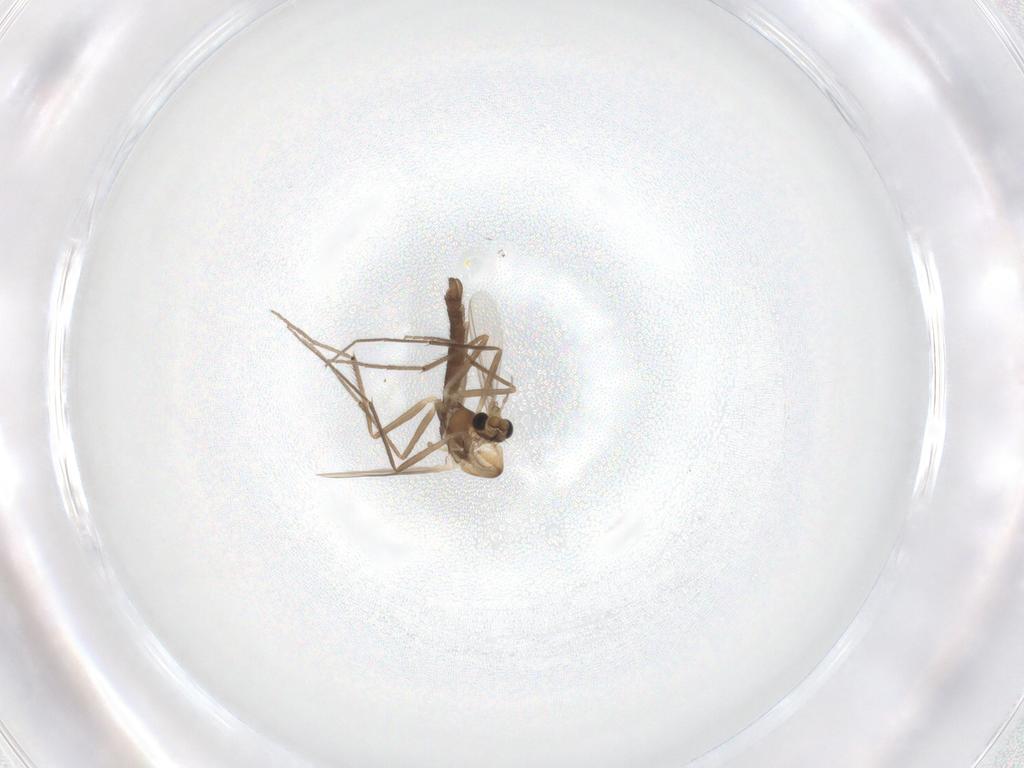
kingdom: Animalia
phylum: Arthropoda
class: Insecta
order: Diptera
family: Chironomidae
